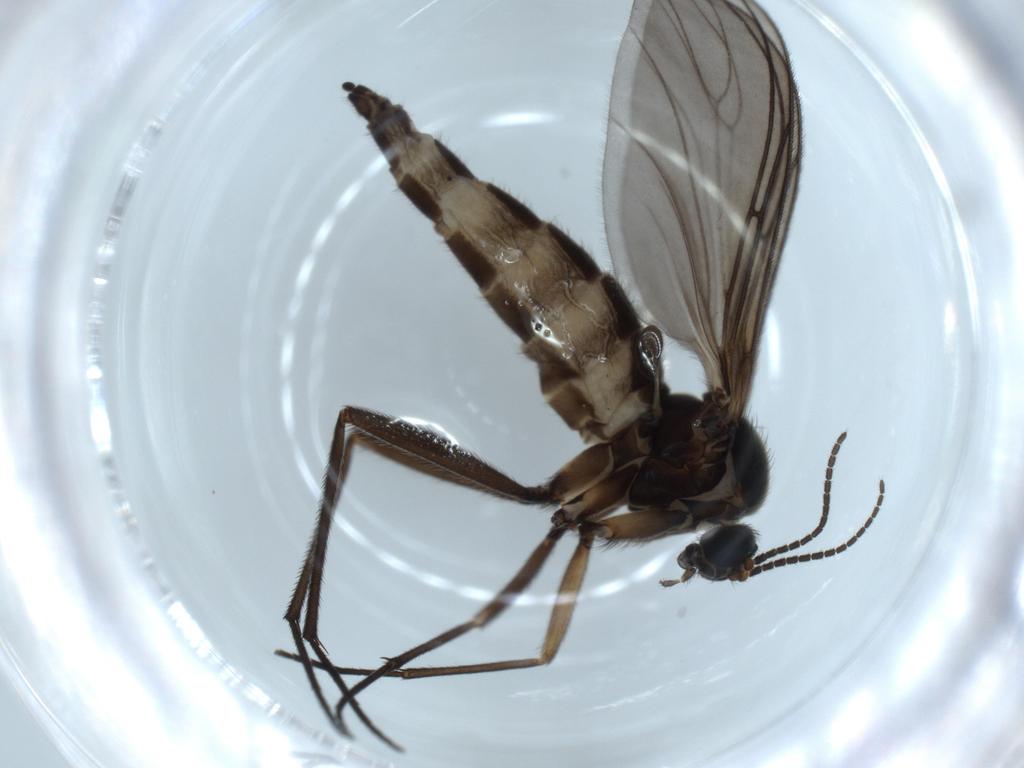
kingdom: Animalia
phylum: Arthropoda
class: Insecta
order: Diptera
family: Sciaridae
